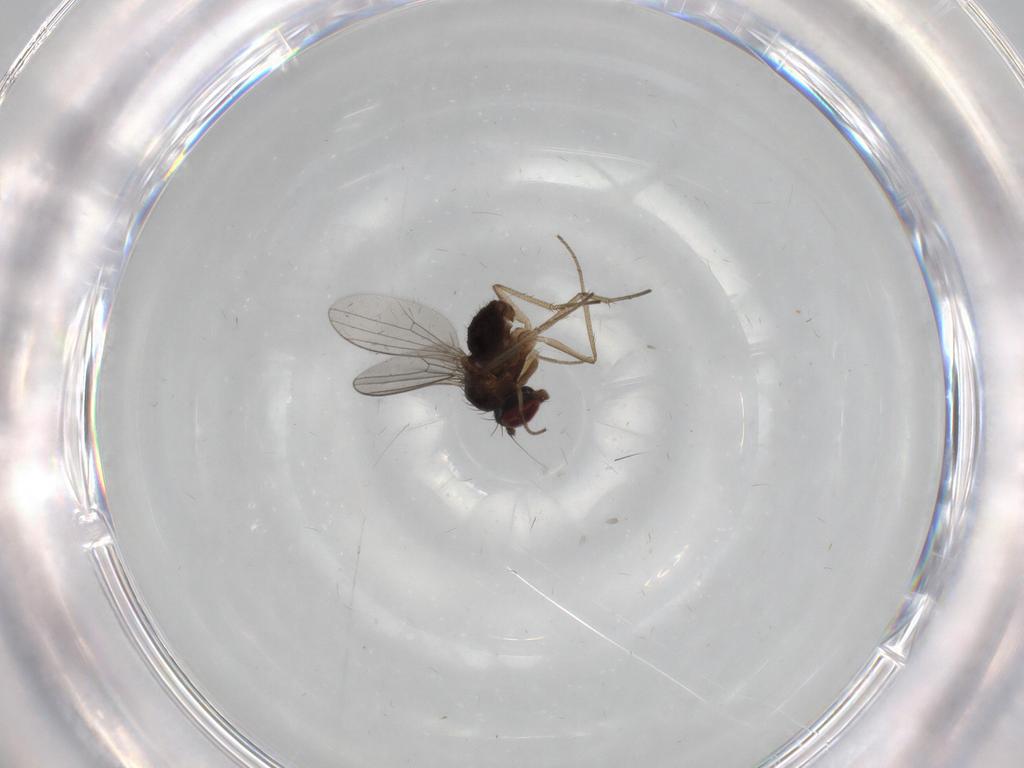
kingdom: Animalia
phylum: Arthropoda
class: Insecta
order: Diptera
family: Dolichopodidae
